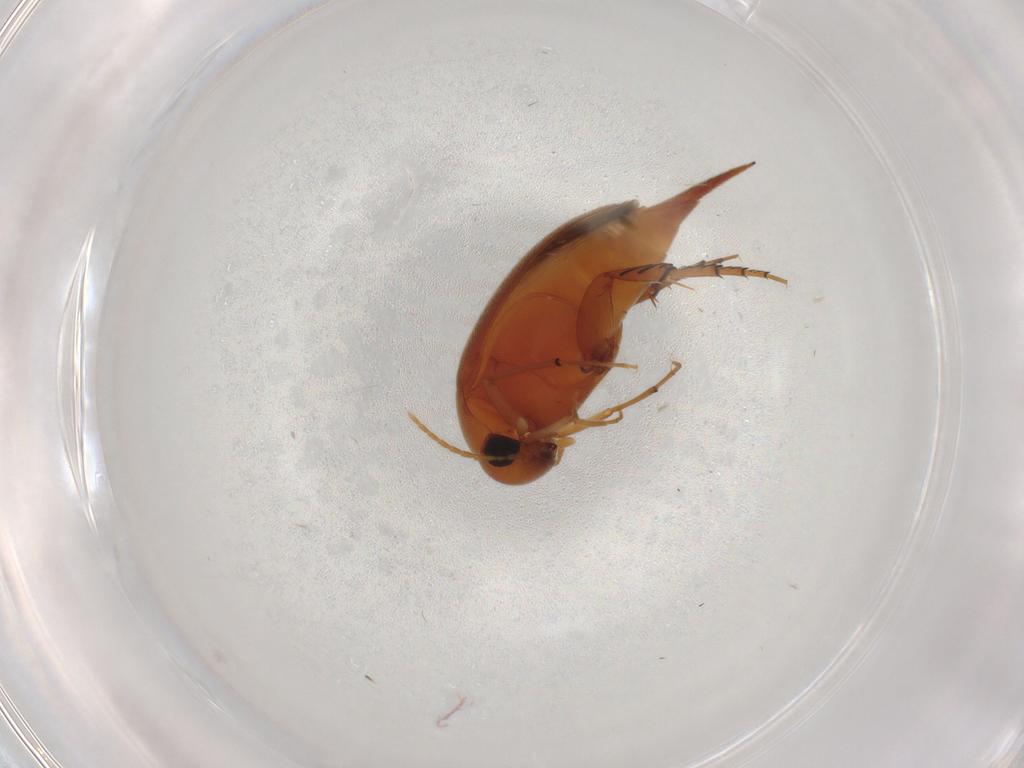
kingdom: Animalia
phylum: Arthropoda
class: Insecta
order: Coleoptera
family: Mordellidae
